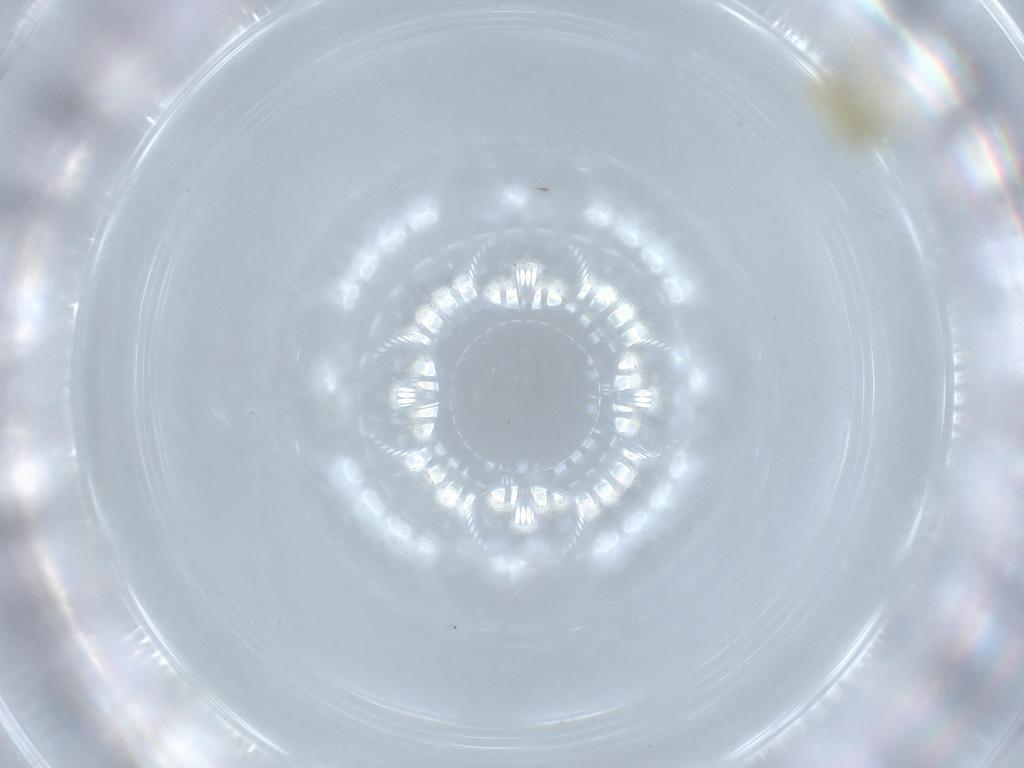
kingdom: Animalia
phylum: Arthropoda
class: Insecta
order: Hemiptera
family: Aleyrodidae
